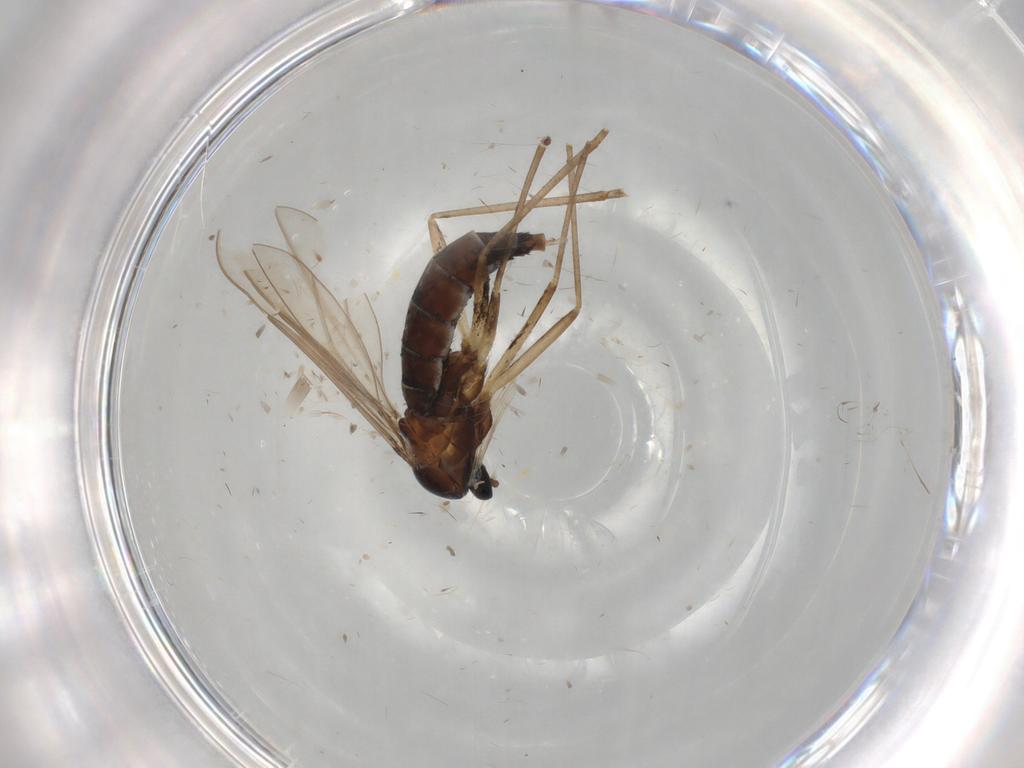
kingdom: Animalia
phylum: Arthropoda
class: Insecta
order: Diptera
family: Cecidomyiidae
